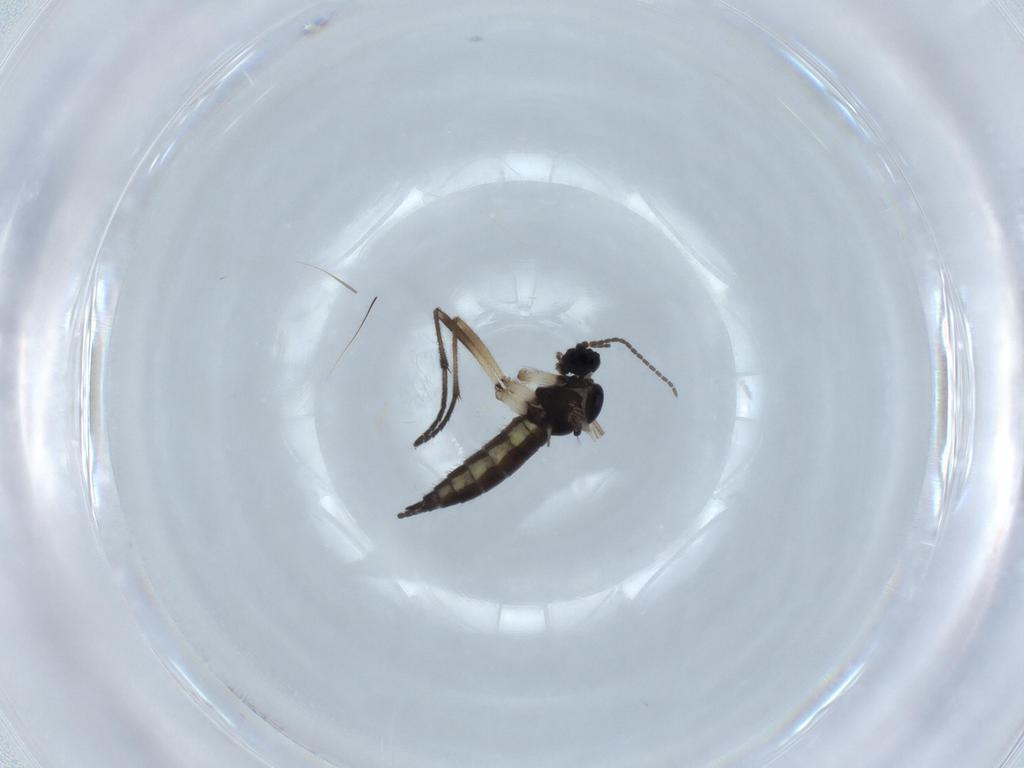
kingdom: Animalia
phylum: Arthropoda
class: Insecta
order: Diptera
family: Sciaridae
